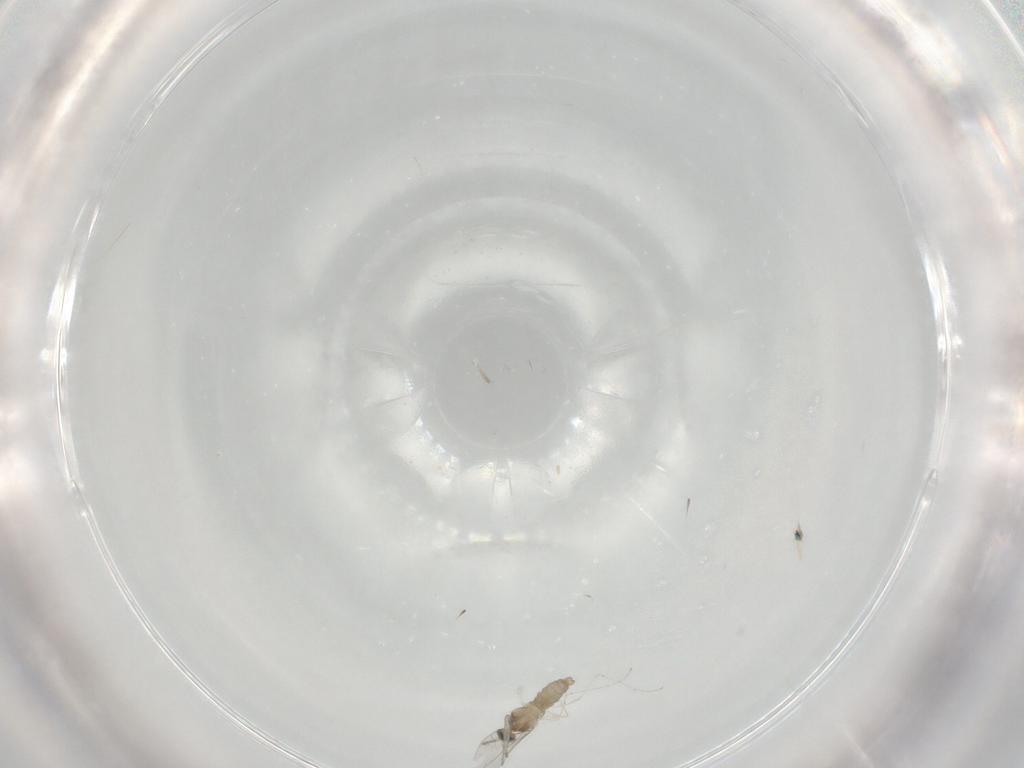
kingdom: Animalia
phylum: Arthropoda
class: Insecta
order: Diptera
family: Cecidomyiidae
